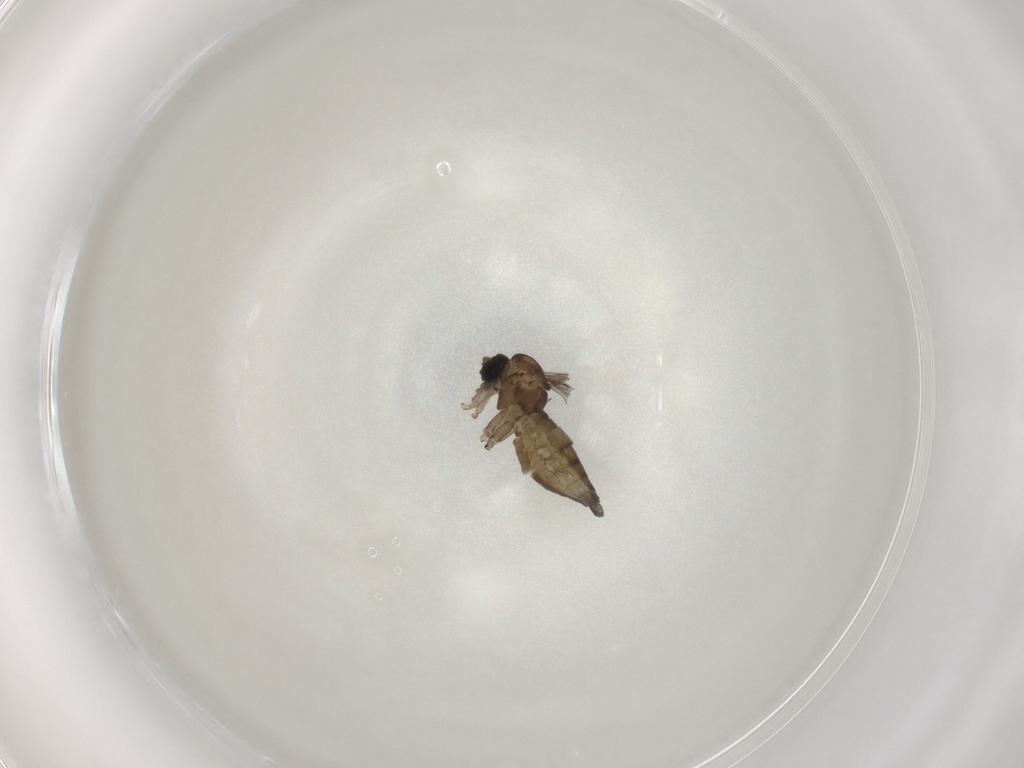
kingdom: Animalia
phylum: Arthropoda
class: Insecta
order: Diptera
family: Sciaridae
